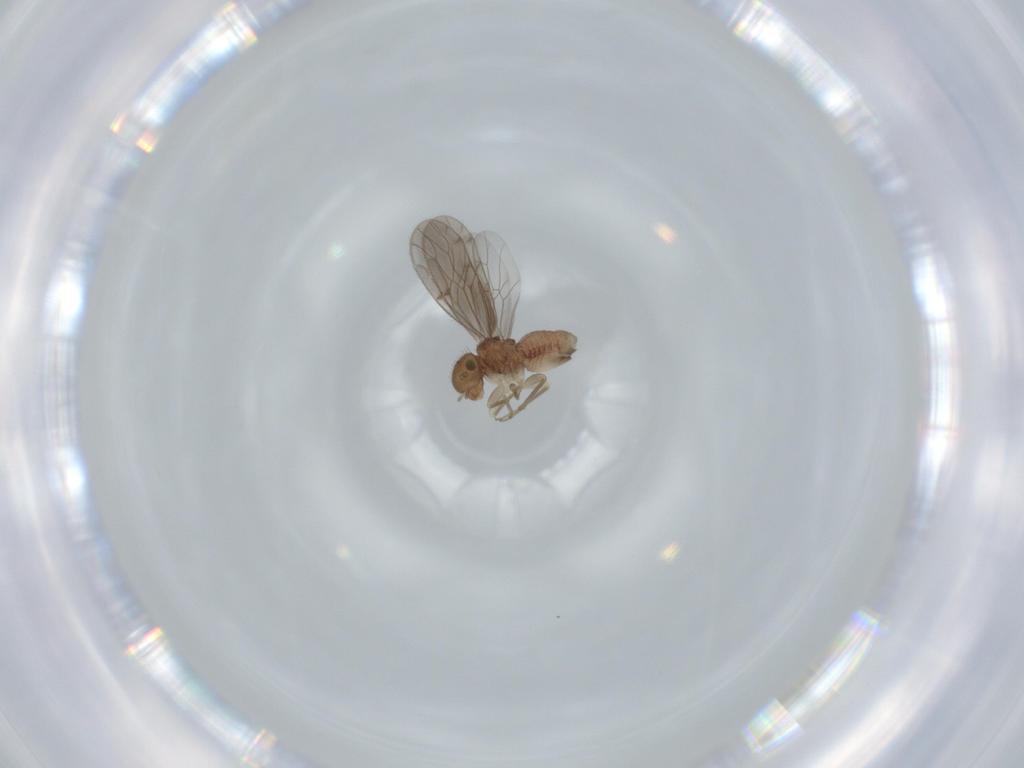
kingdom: Animalia
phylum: Arthropoda
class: Insecta
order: Psocodea
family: Ectopsocidae
